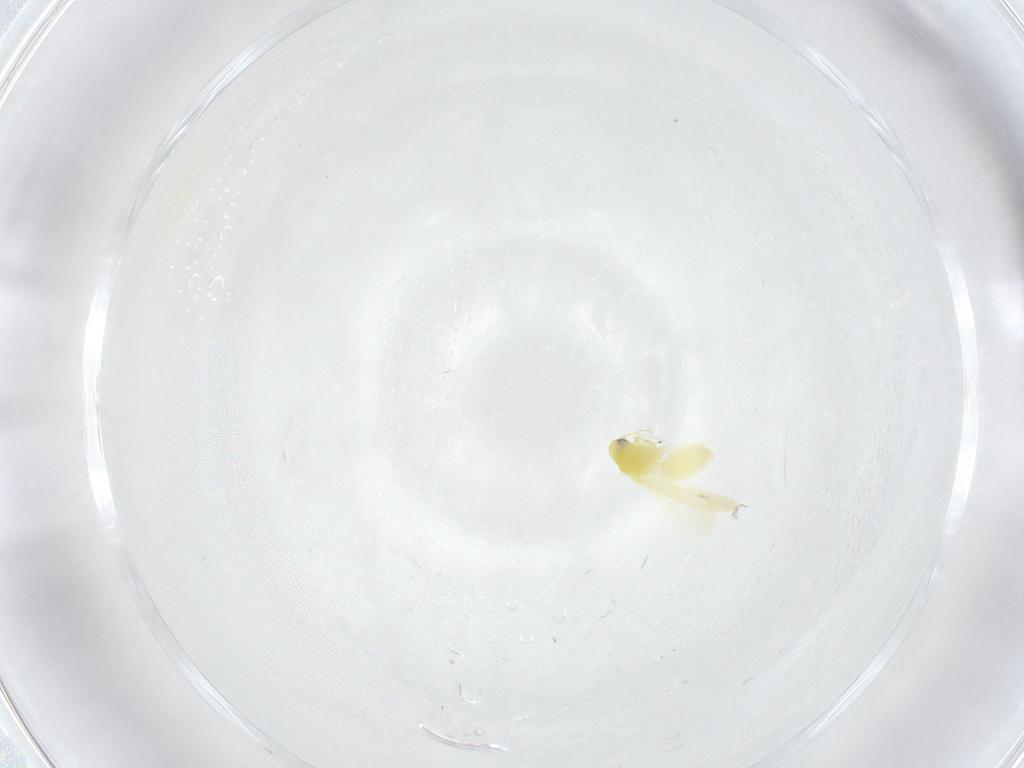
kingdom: Animalia
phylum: Arthropoda
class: Insecta
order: Hemiptera
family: Aleyrodidae
